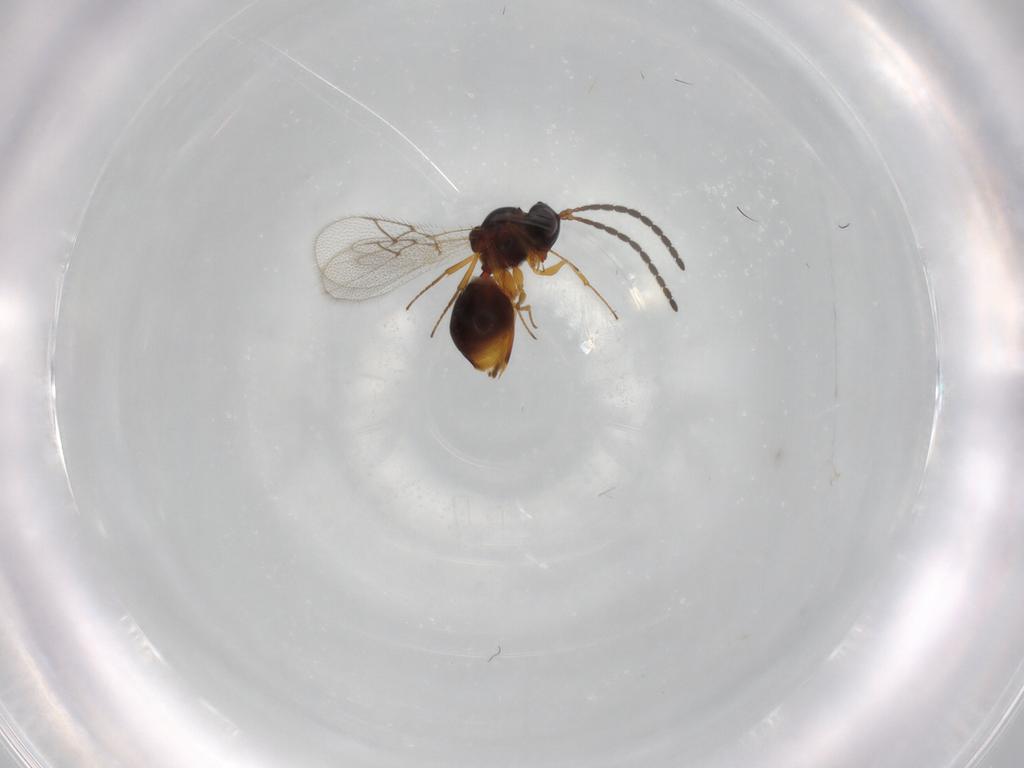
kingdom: Animalia
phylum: Arthropoda
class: Insecta
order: Hymenoptera
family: Figitidae
